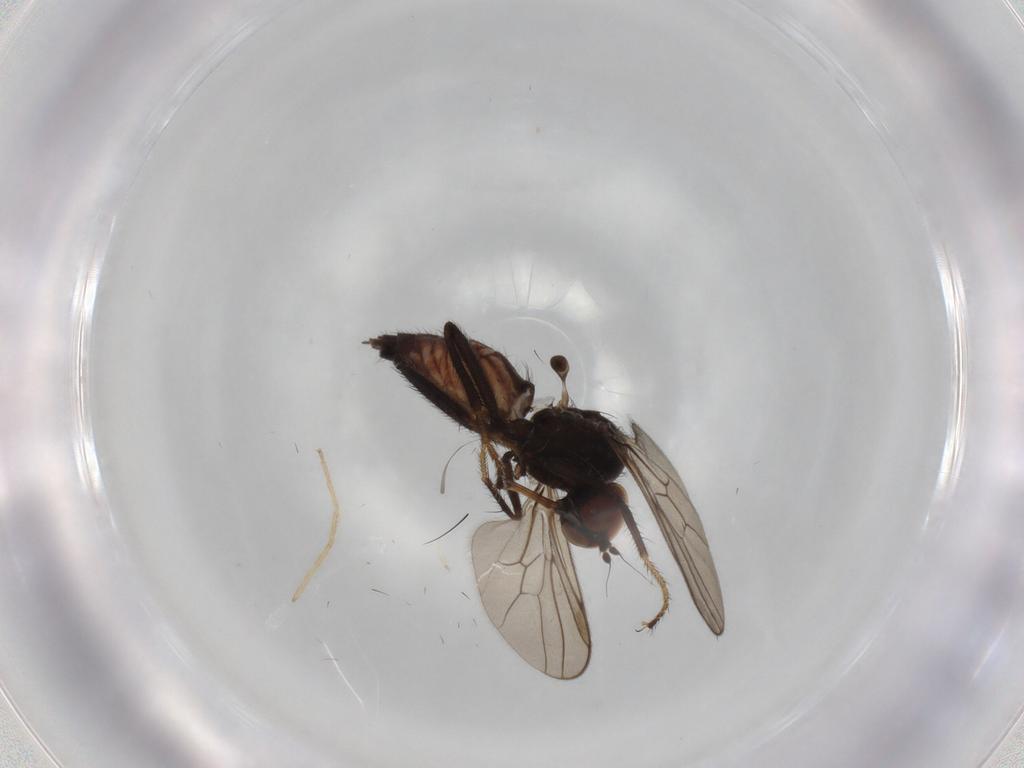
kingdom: Animalia
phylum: Arthropoda
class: Insecta
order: Diptera
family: Hybotidae
